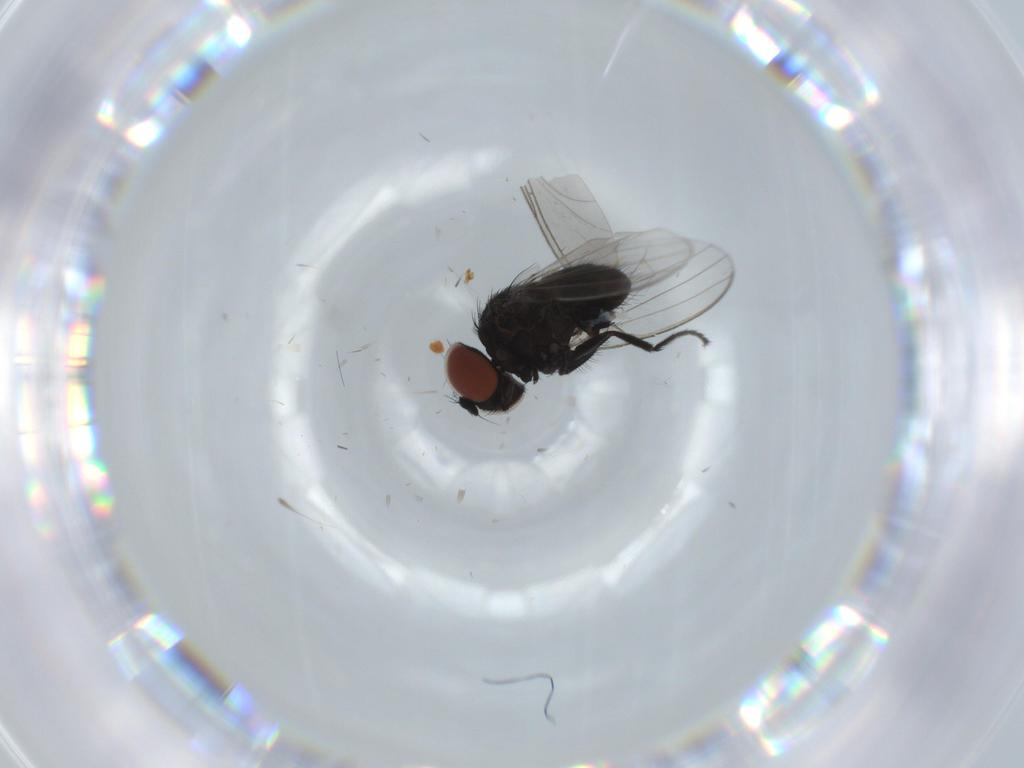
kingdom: Animalia
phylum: Arthropoda
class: Insecta
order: Diptera
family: Milichiidae
